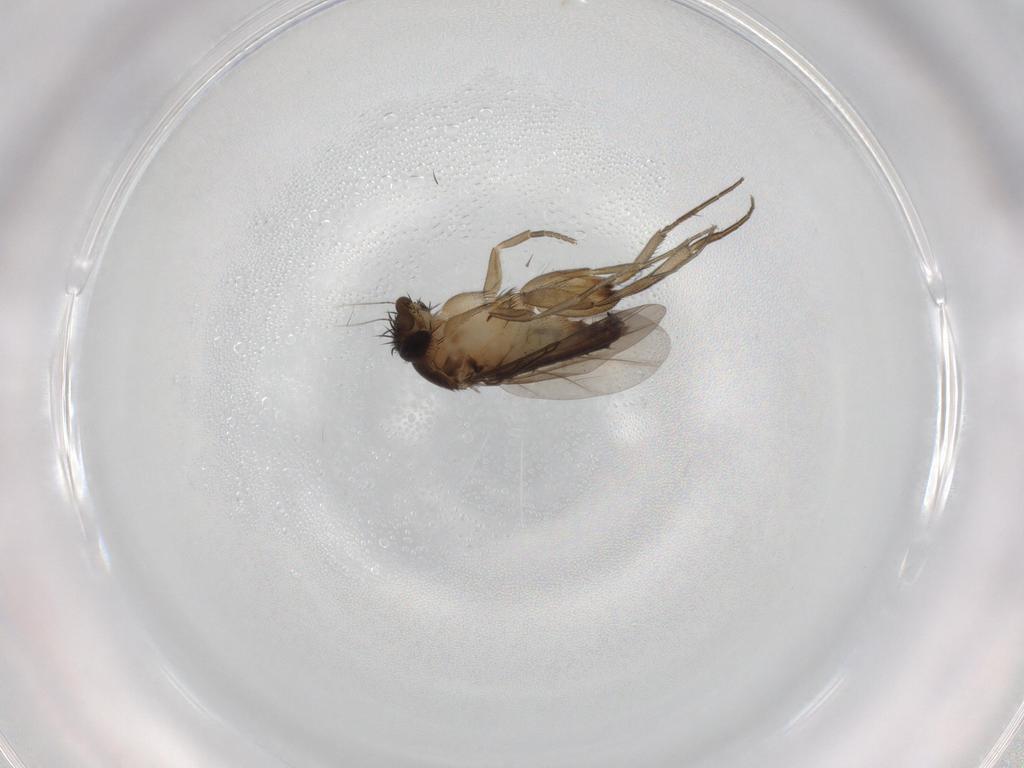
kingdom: Animalia
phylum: Arthropoda
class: Insecta
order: Diptera
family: Phoridae
